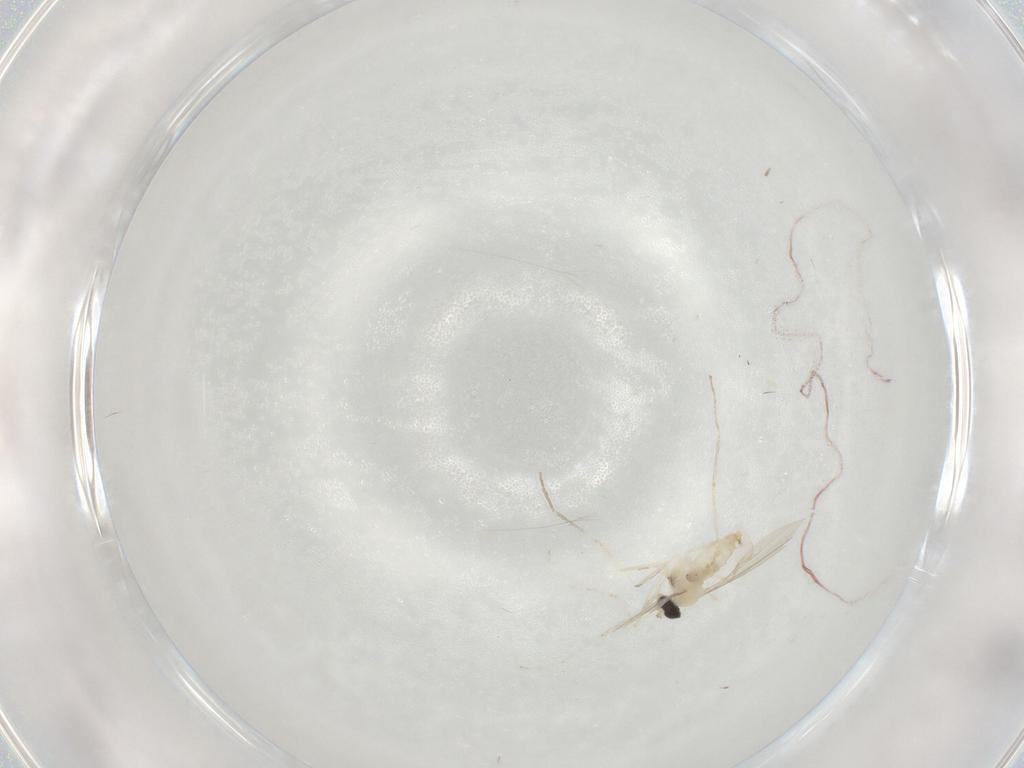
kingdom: Animalia
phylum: Arthropoda
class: Insecta
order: Diptera
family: Cecidomyiidae
